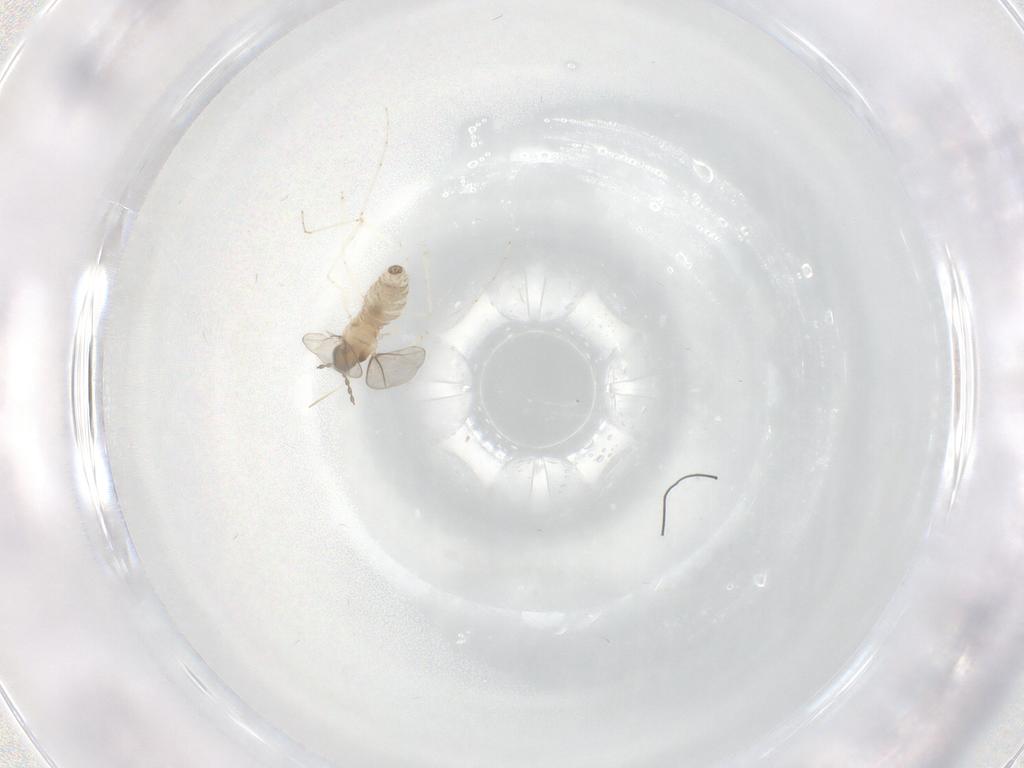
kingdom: Animalia
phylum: Arthropoda
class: Insecta
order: Diptera
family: Cecidomyiidae
